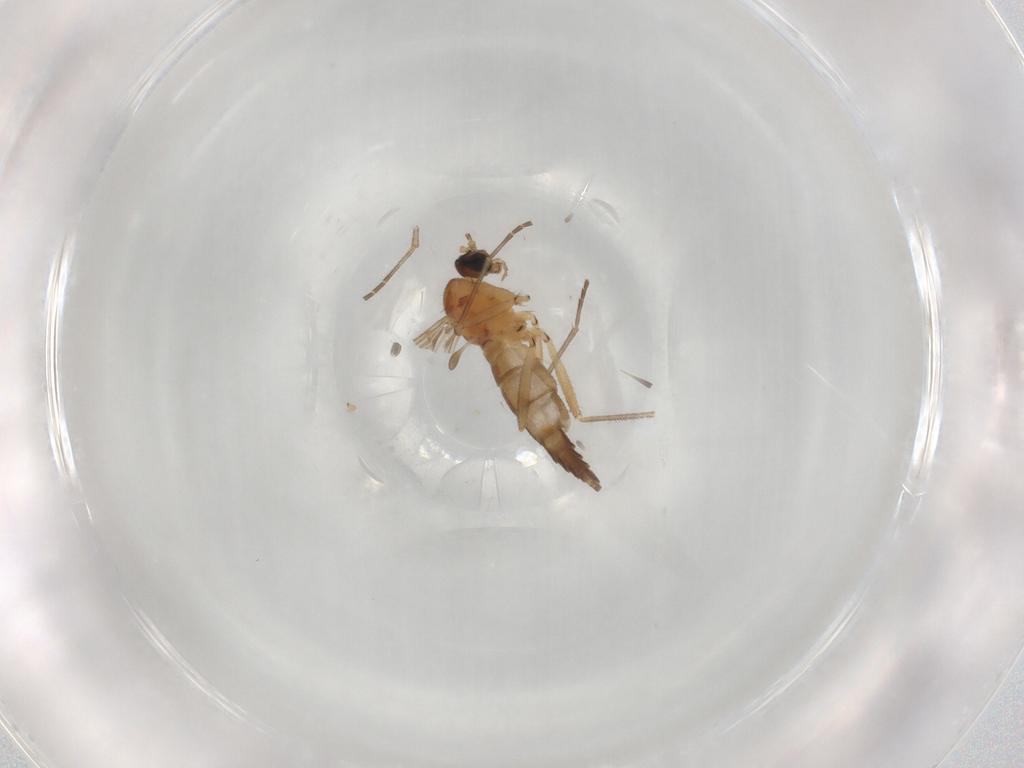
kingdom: Animalia
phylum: Arthropoda
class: Insecta
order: Diptera
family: Sciaridae
